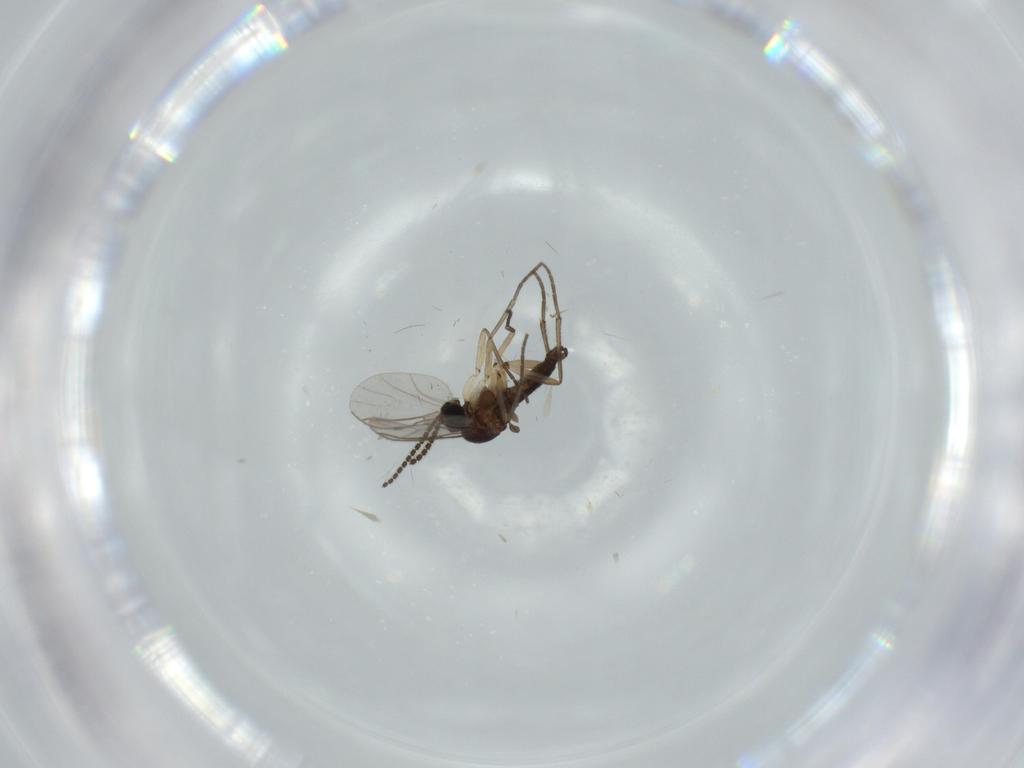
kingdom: Animalia
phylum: Arthropoda
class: Insecta
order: Diptera
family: Sciaridae
